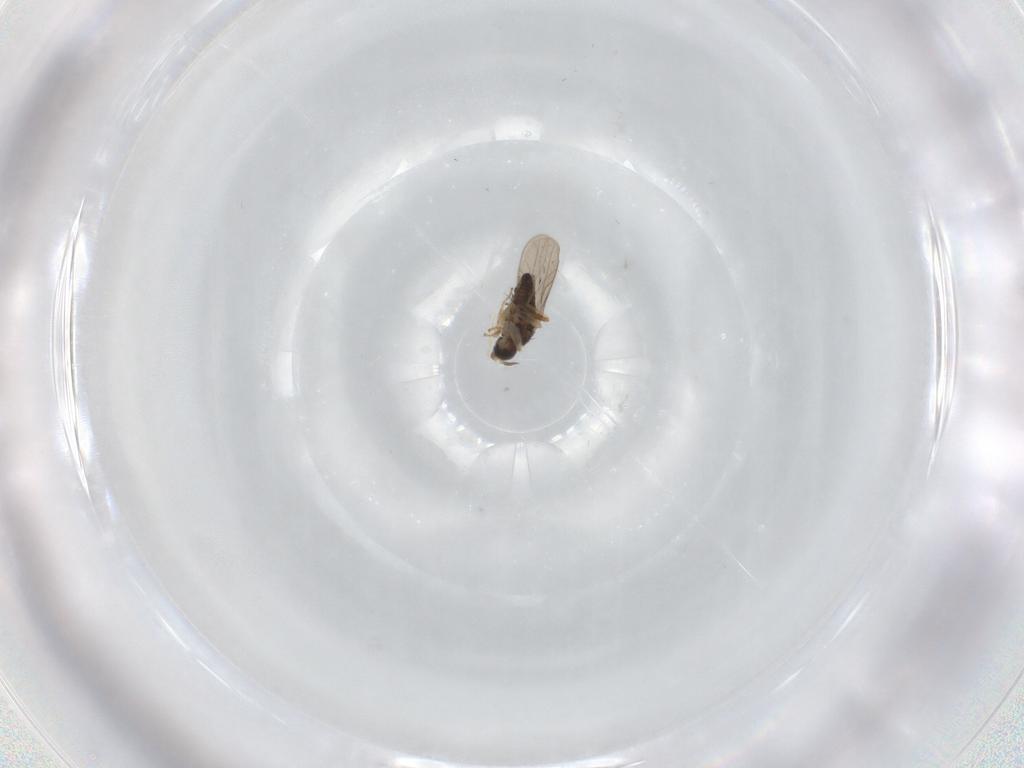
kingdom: Animalia
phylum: Arthropoda
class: Insecta
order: Diptera
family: Hybotidae
